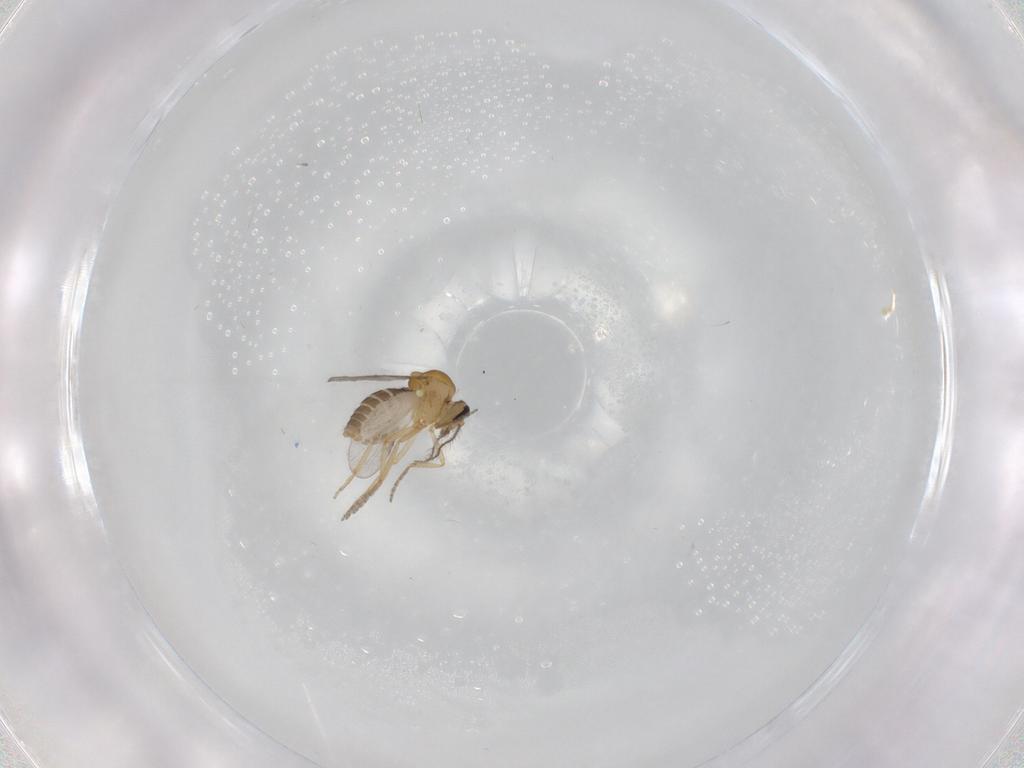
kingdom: Animalia
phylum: Arthropoda
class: Insecta
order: Diptera
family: Ceratopogonidae
